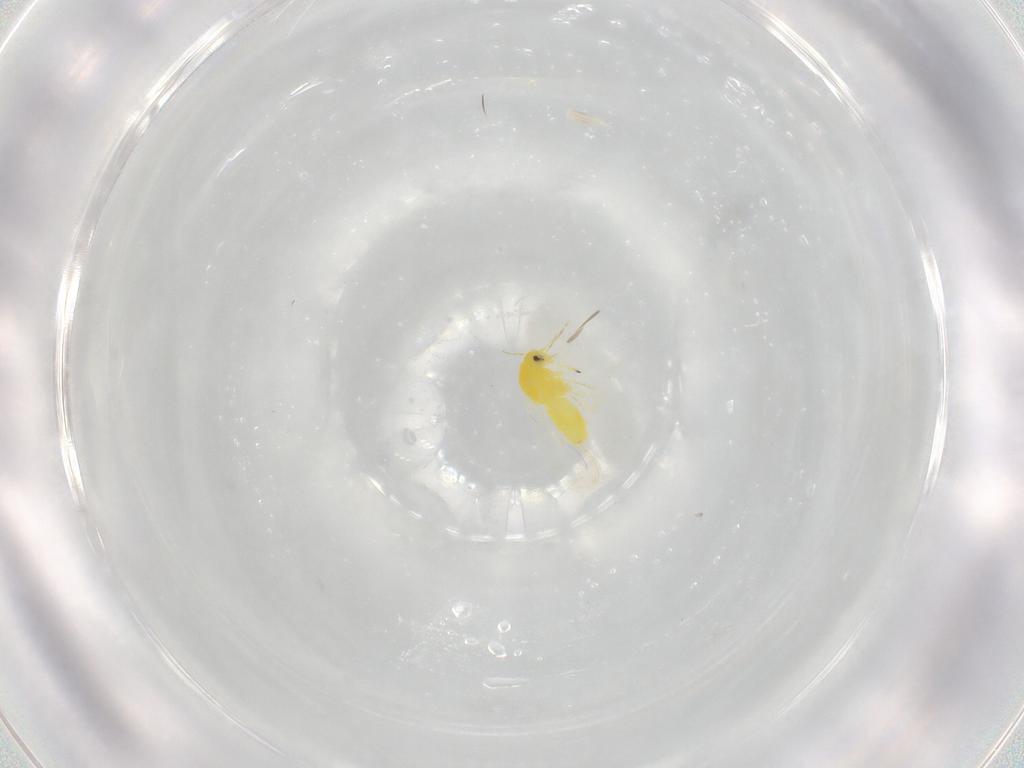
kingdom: Animalia
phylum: Arthropoda
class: Insecta
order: Hemiptera
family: Aleyrodidae
